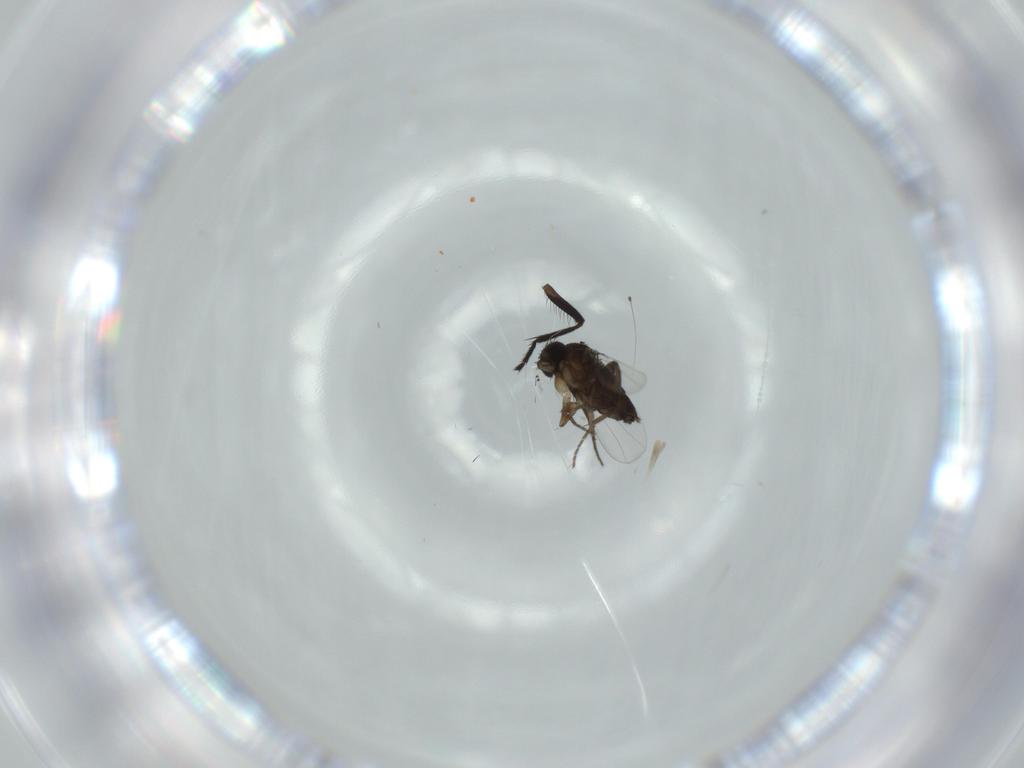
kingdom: Animalia
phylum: Arthropoda
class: Insecta
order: Diptera
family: Phoridae
